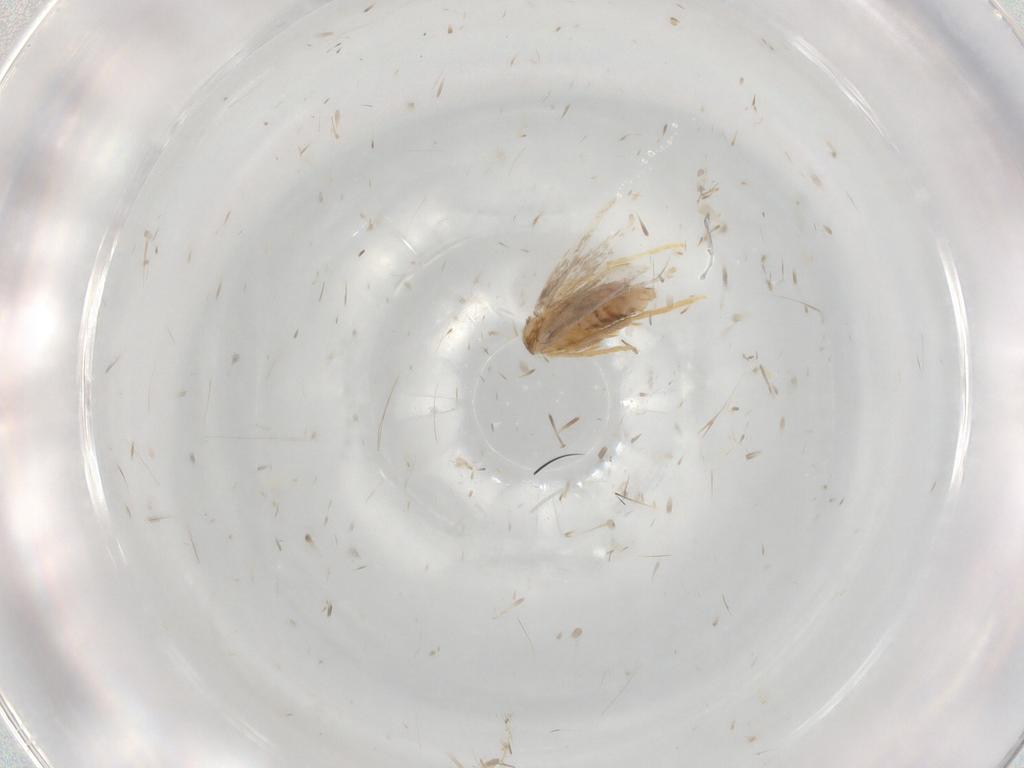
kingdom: Animalia
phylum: Arthropoda
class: Insecta
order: Lepidoptera
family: Nepticulidae
